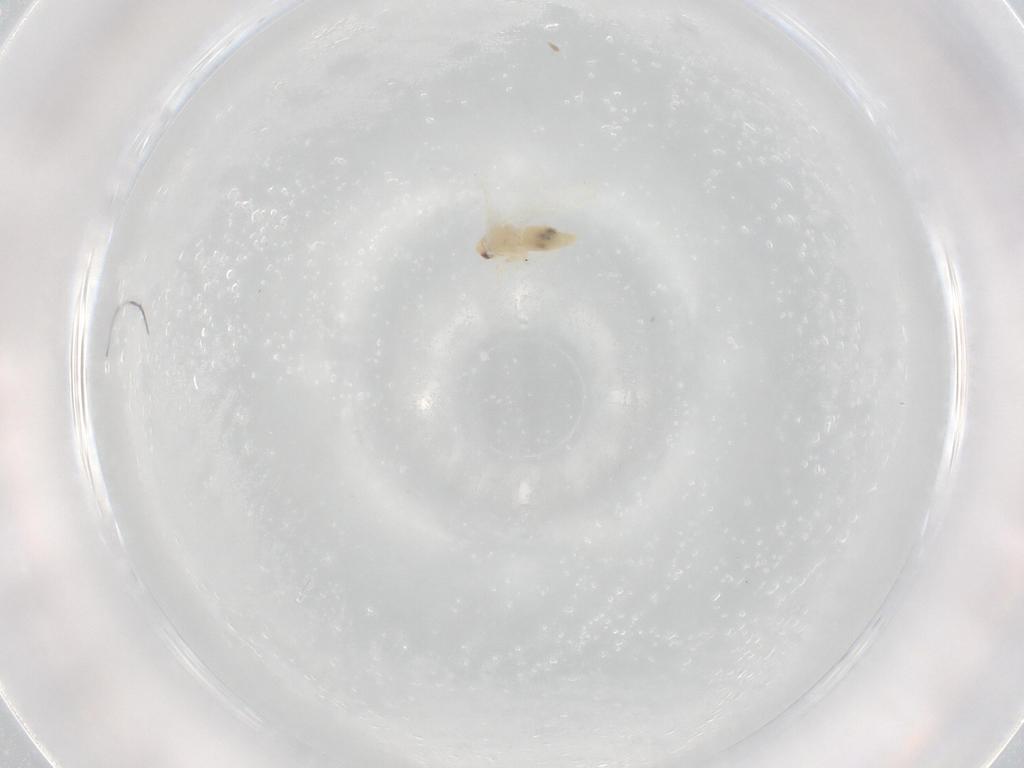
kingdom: Animalia
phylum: Arthropoda
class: Insecta
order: Hemiptera
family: Aleyrodidae
